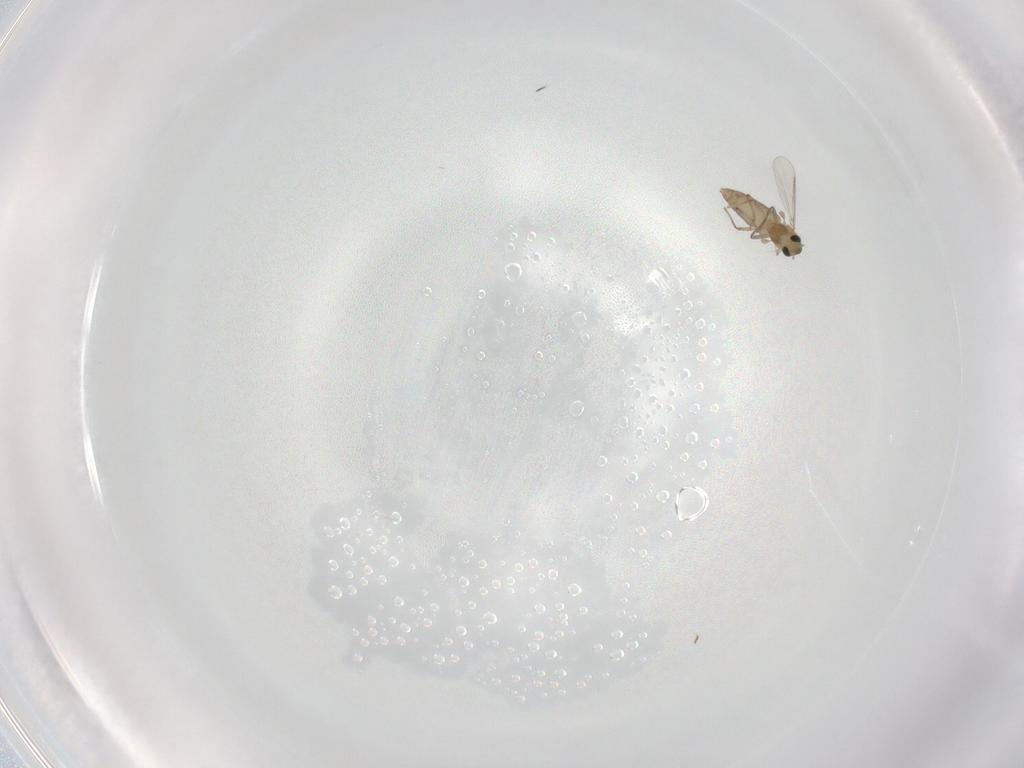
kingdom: Animalia
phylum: Arthropoda
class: Insecta
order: Diptera
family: Chironomidae
